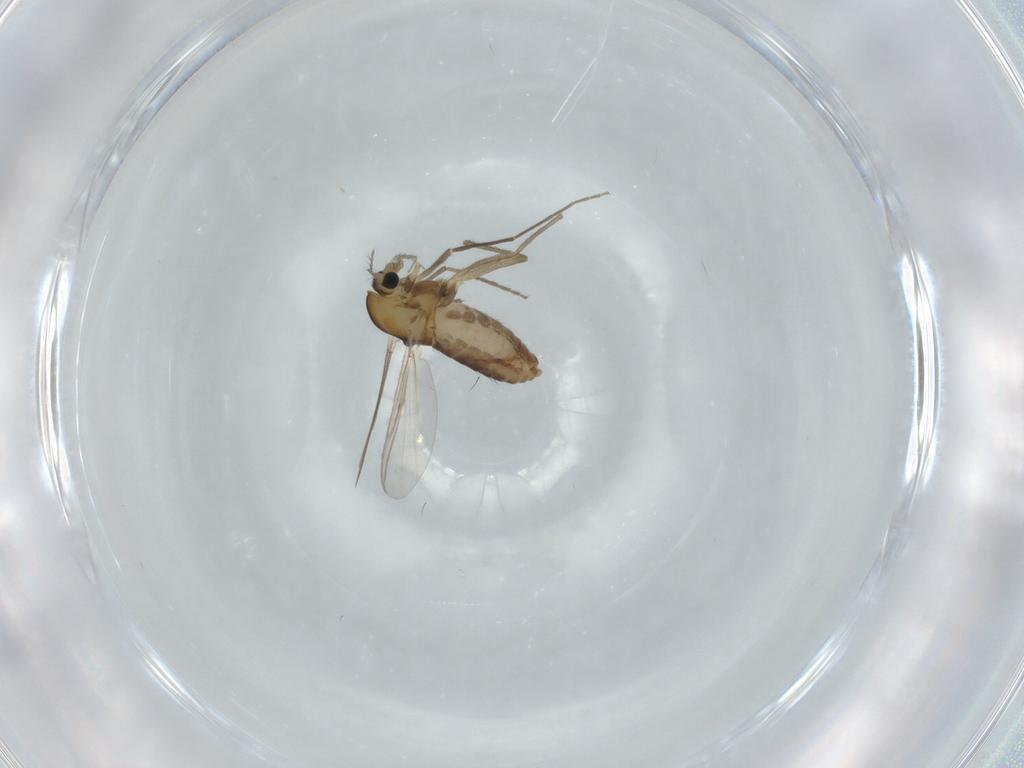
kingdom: Animalia
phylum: Arthropoda
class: Insecta
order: Diptera
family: Chironomidae
